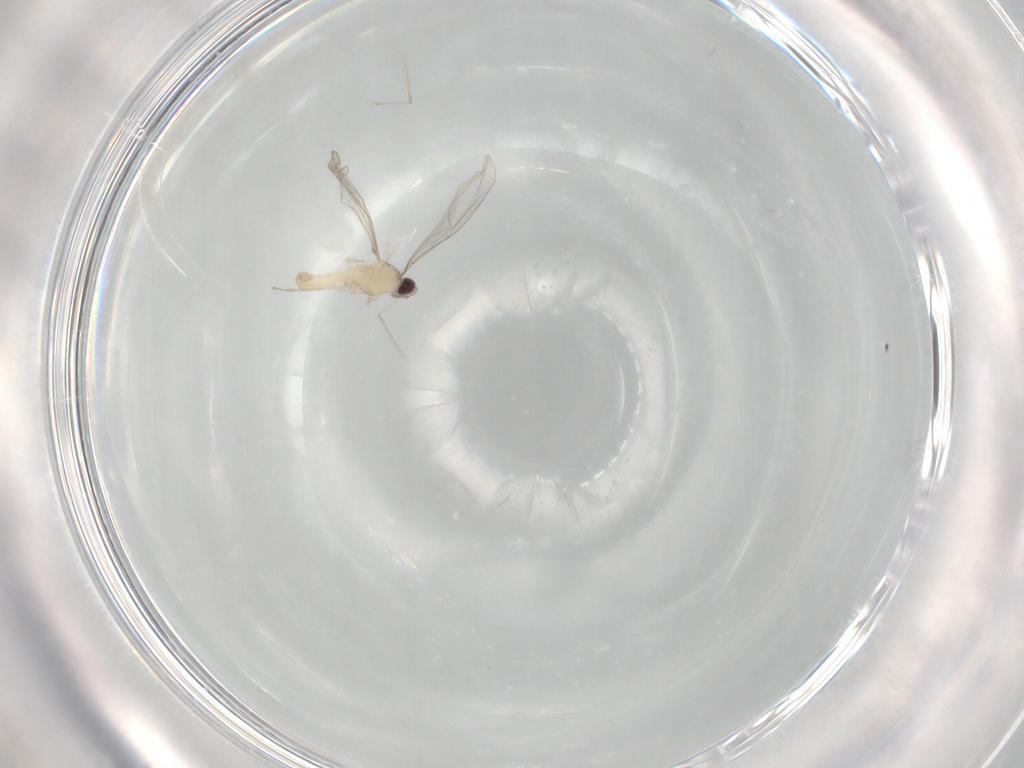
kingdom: Animalia
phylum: Arthropoda
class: Insecta
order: Diptera
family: Cecidomyiidae
